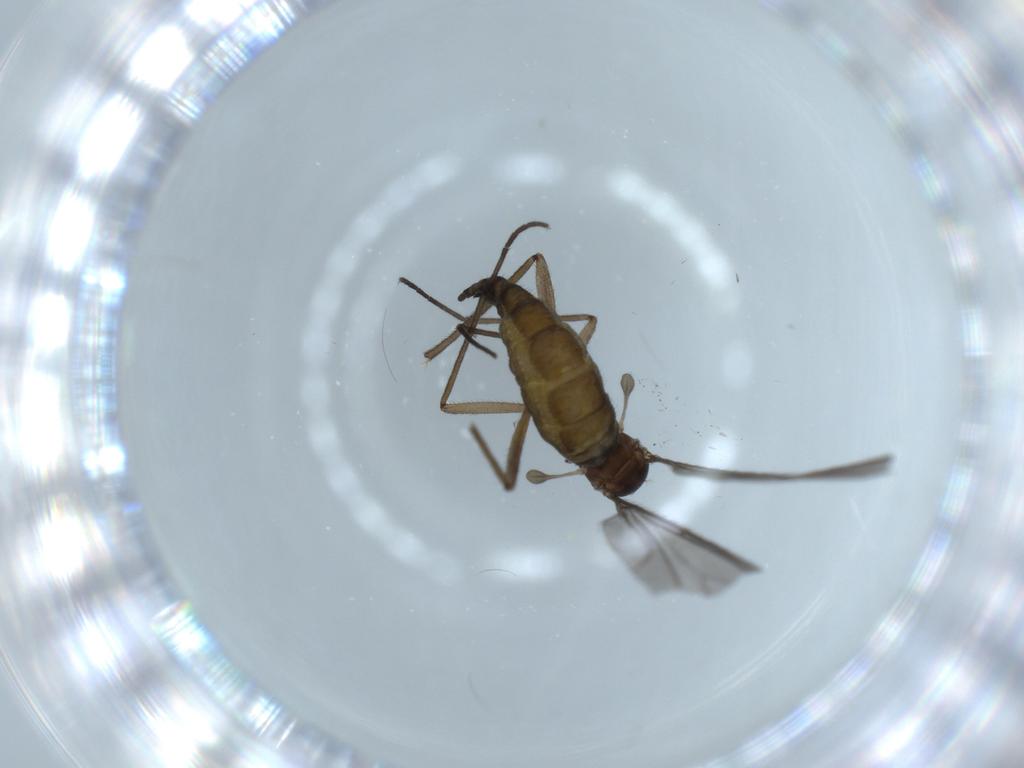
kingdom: Animalia
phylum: Arthropoda
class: Insecta
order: Diptera
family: Sciaridae
